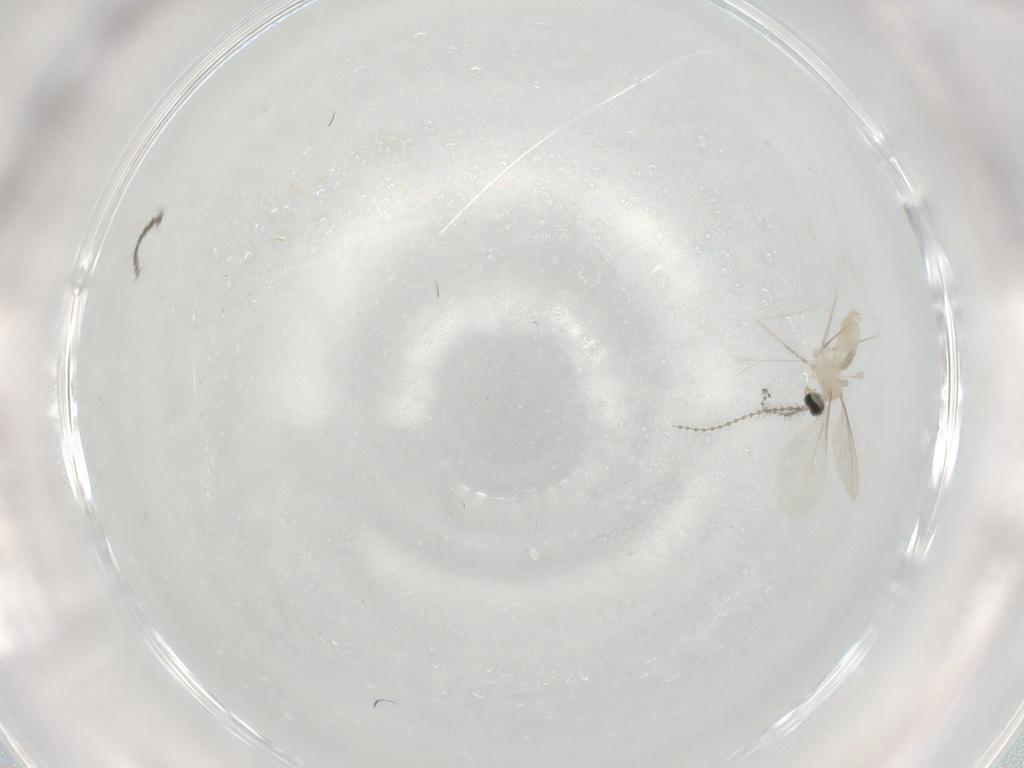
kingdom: Animalia
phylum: Arthropoda
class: Insecta
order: Diptera
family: Cecidomyiidae
